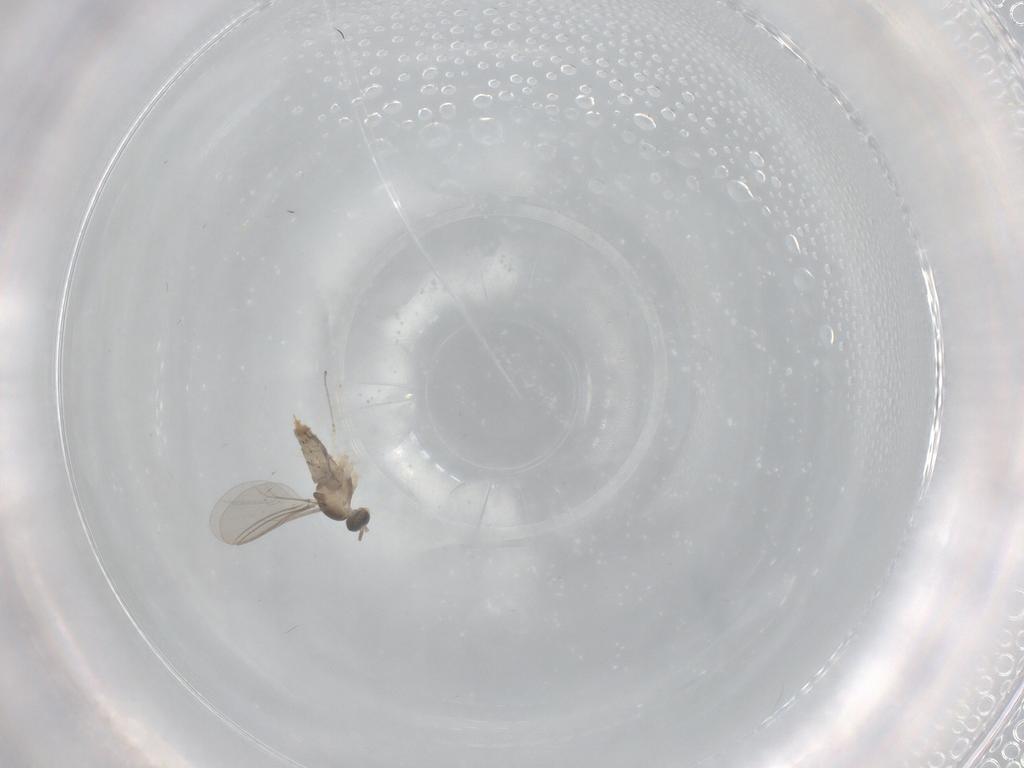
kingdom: Animalia
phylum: Arthropoda
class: Insecta
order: Diptera
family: Cecidomyiidae
